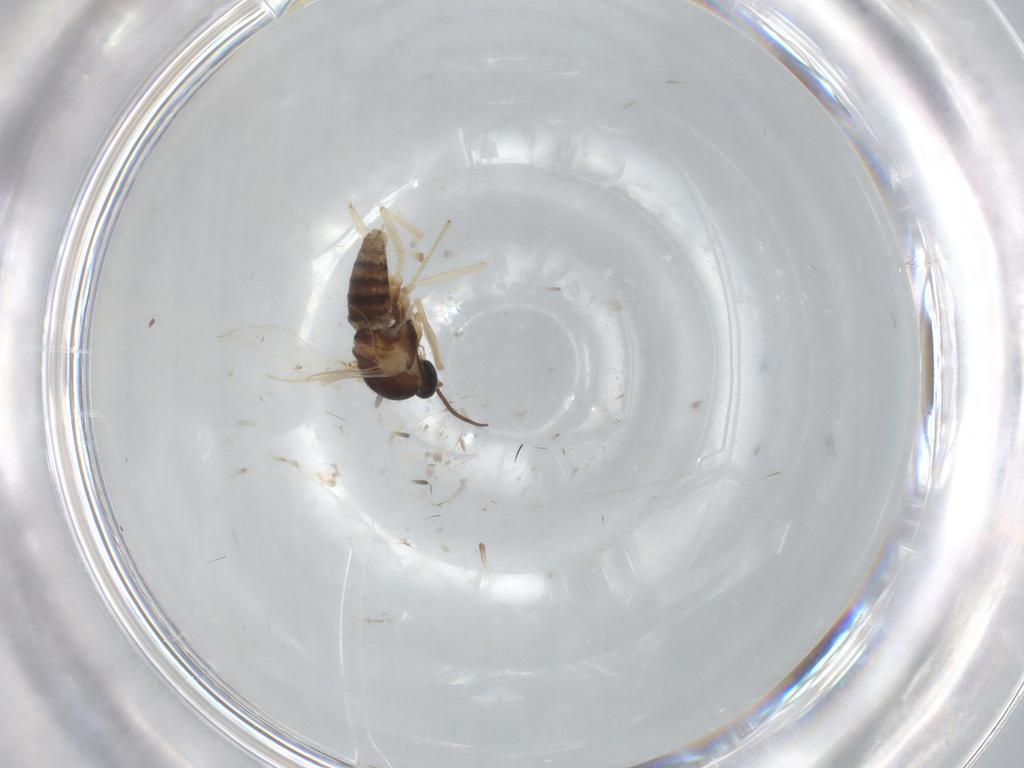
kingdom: Animalia
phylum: Arthropoda
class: Insecta
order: Diptera
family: Cecidomyiidae
